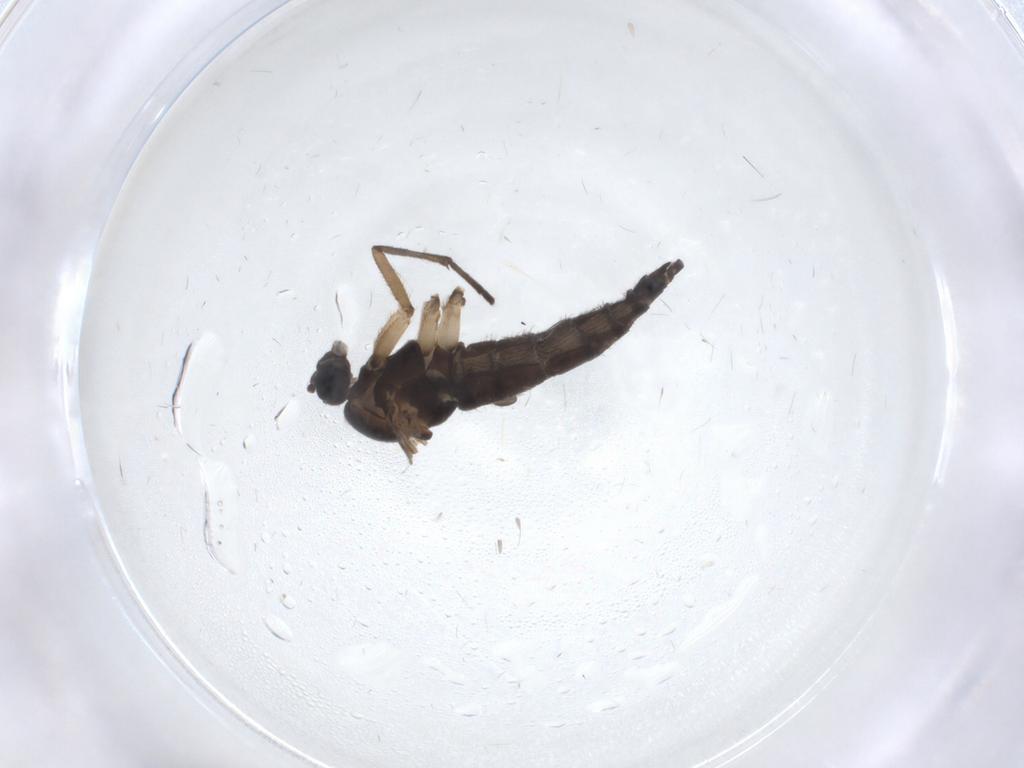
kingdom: Animalia
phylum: Arthropoda
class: Insecta
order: Diptera
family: Sciaridae
